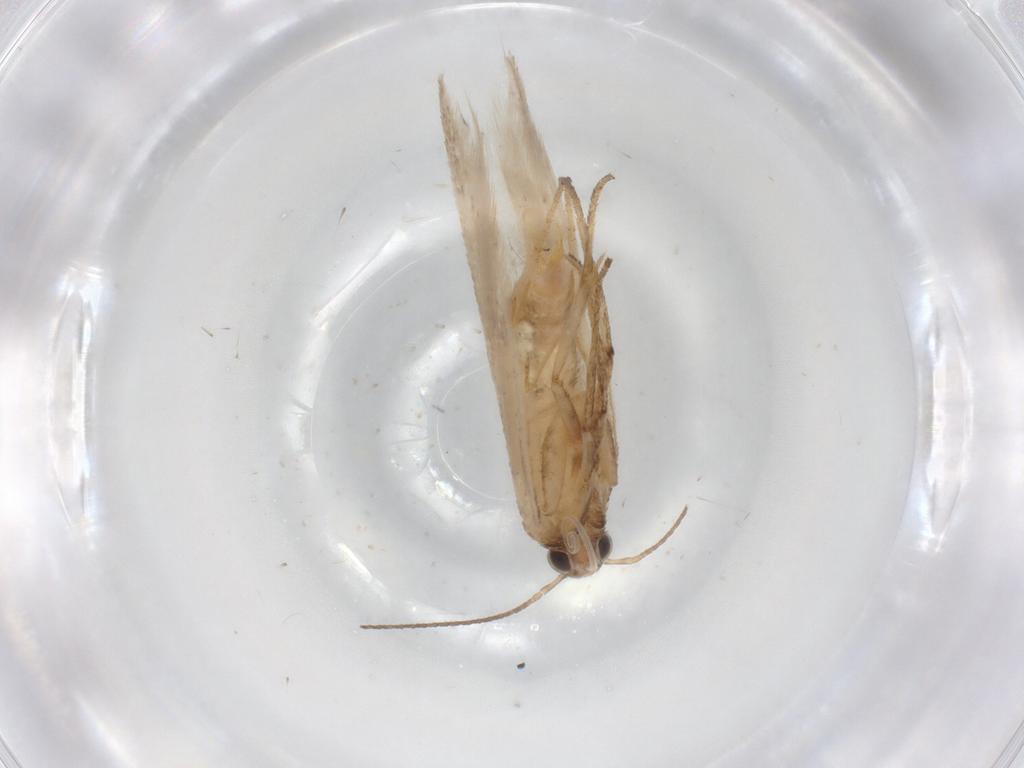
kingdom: Animalia
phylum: Arthropoda
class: Insecta
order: Lepidoptera
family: Gelechiidae
